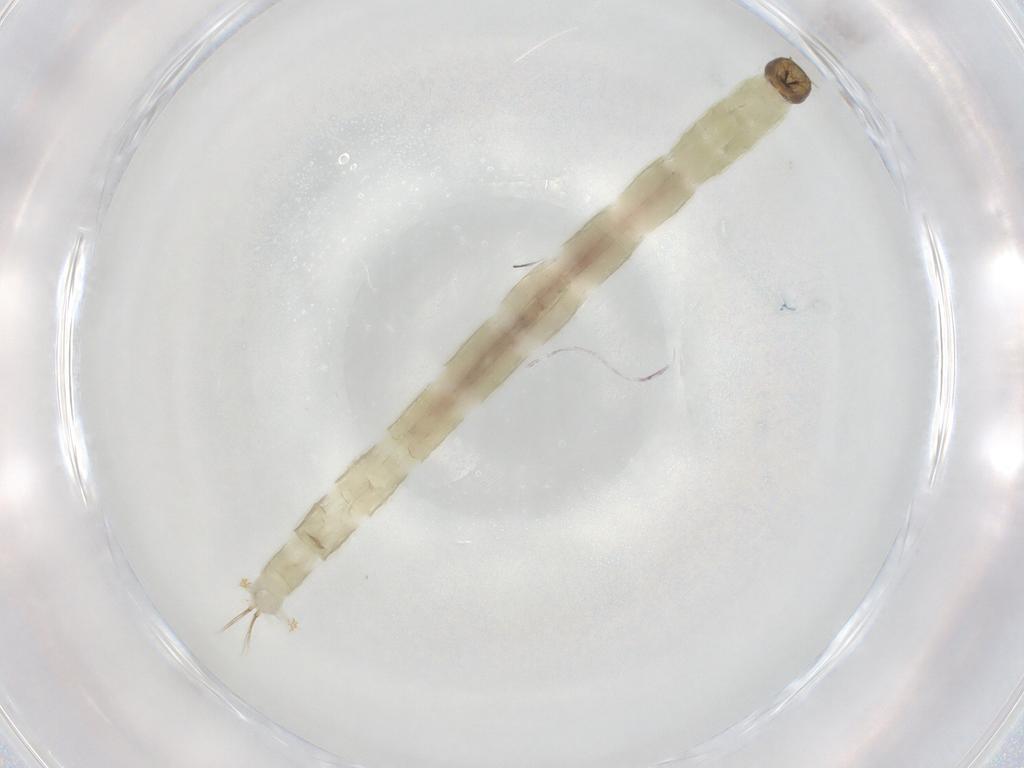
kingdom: Animalia
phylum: Arthropoda
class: Insecta
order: Diptera
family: Chironomidae
